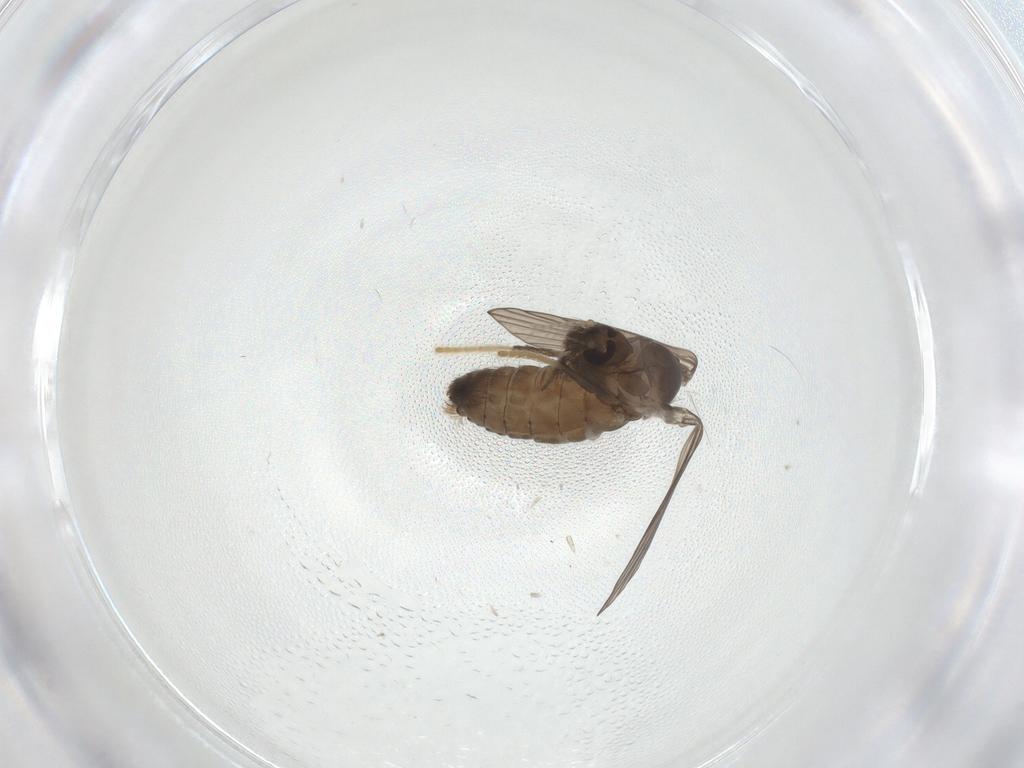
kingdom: Animalia
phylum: Arthropoda
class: Insecta
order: Diptera
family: Psychodidae
